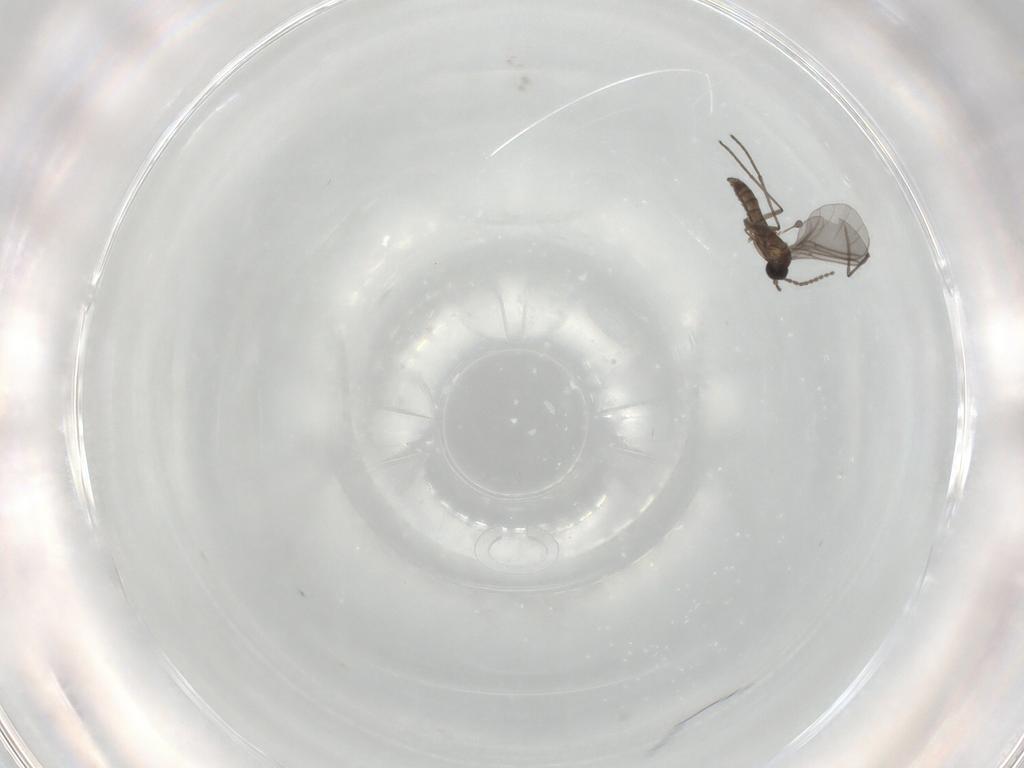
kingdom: Animalia
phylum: Arthropoda
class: Insecta
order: Diptera
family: Sciaridae
